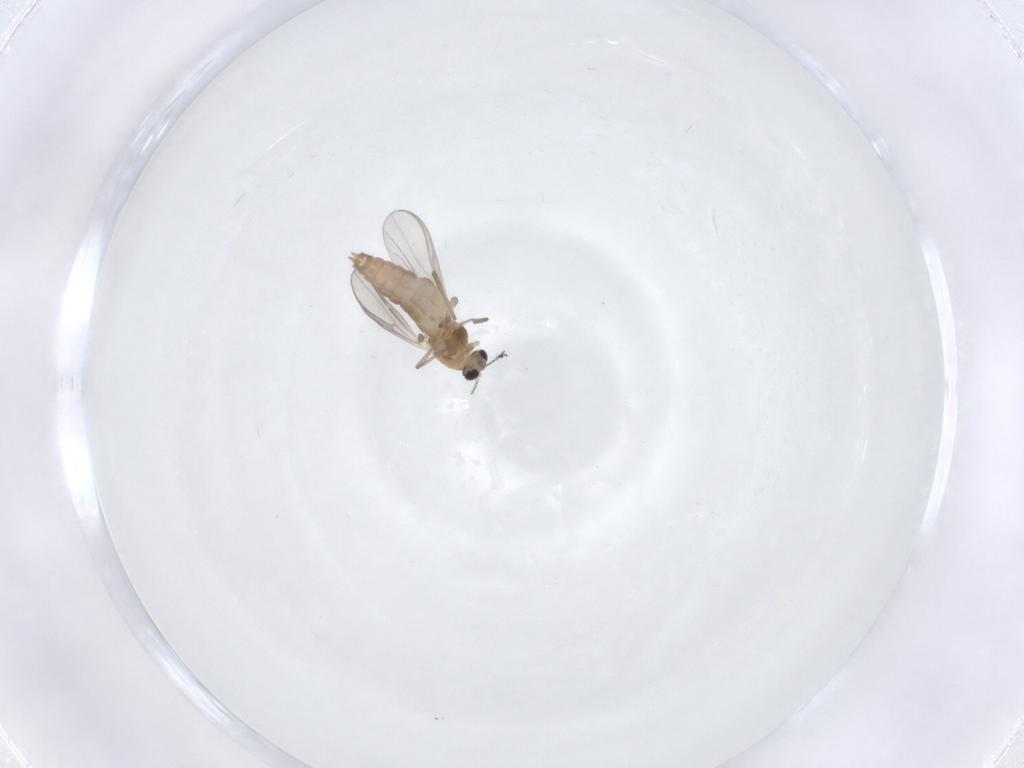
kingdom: Animalia
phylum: Arthropoda
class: Insecta
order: Diptera
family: Chironomidae
